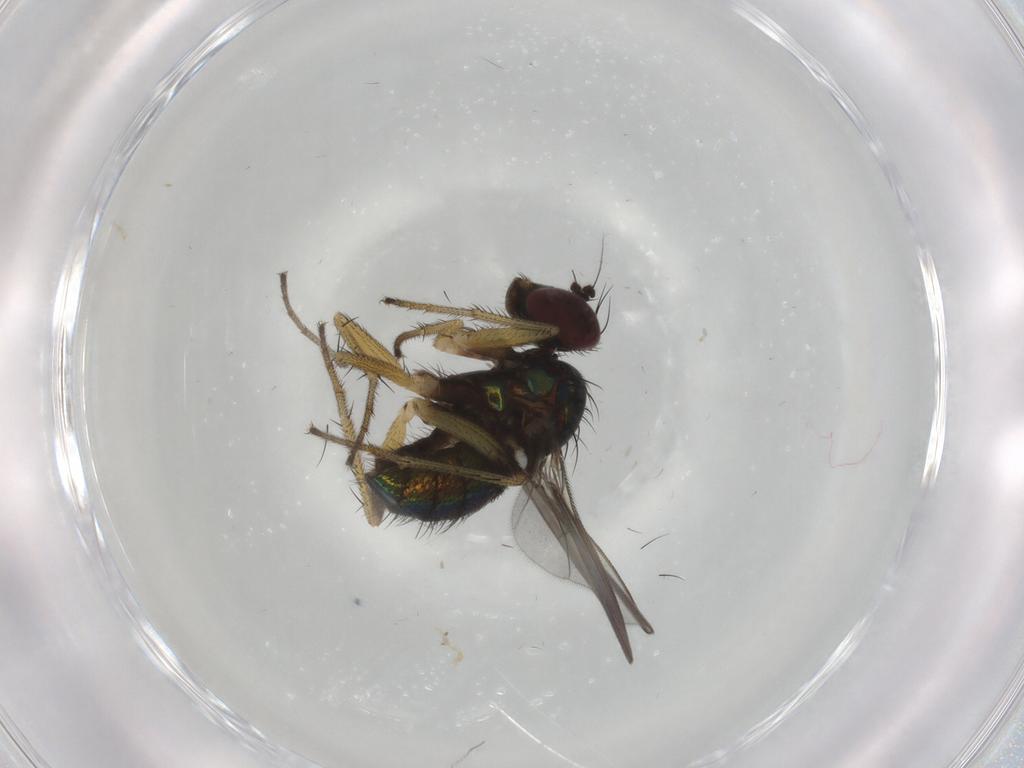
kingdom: Animalia
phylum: Arthropoda
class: Insecta
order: Diptera
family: Dolichopodidae
